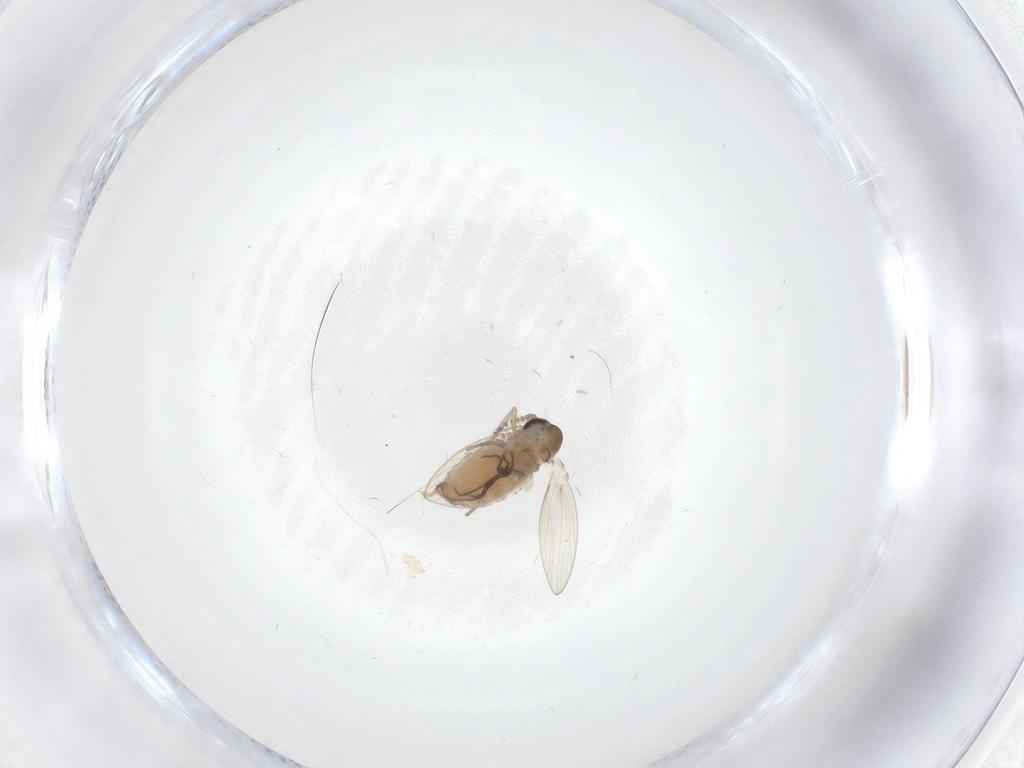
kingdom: Animalia
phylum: Arthropoda
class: Insecta
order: Diptera
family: Psychodidae
